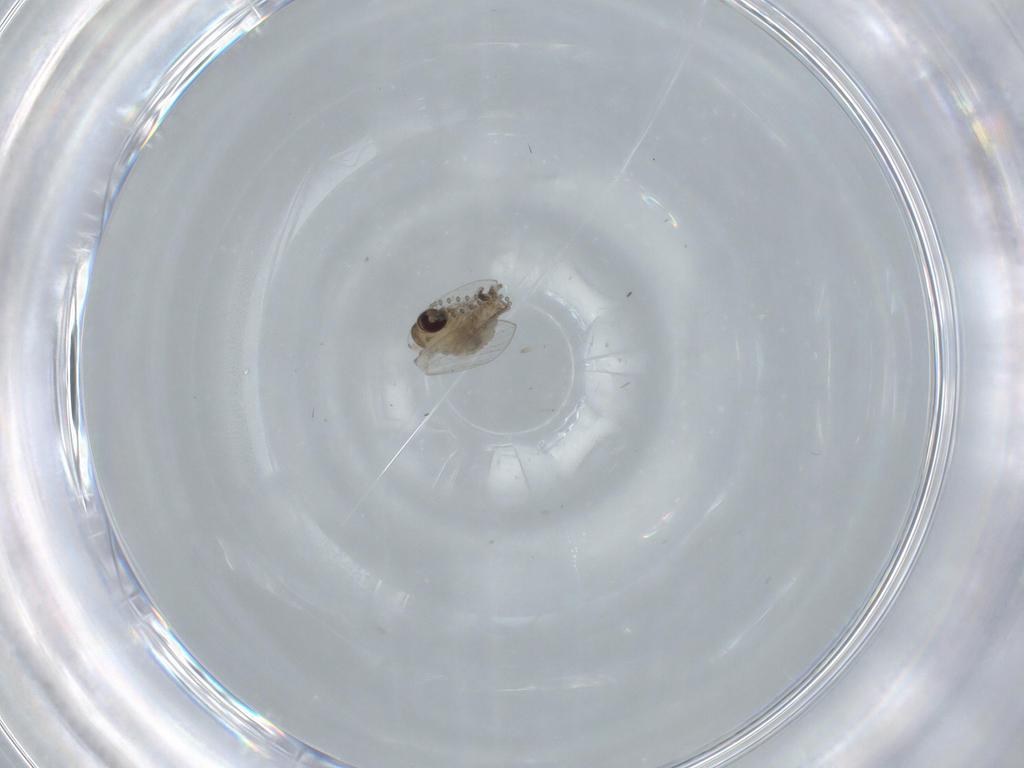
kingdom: Animalia
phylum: Arthropoda
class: Insecta
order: Diptera
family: Psychodidae
